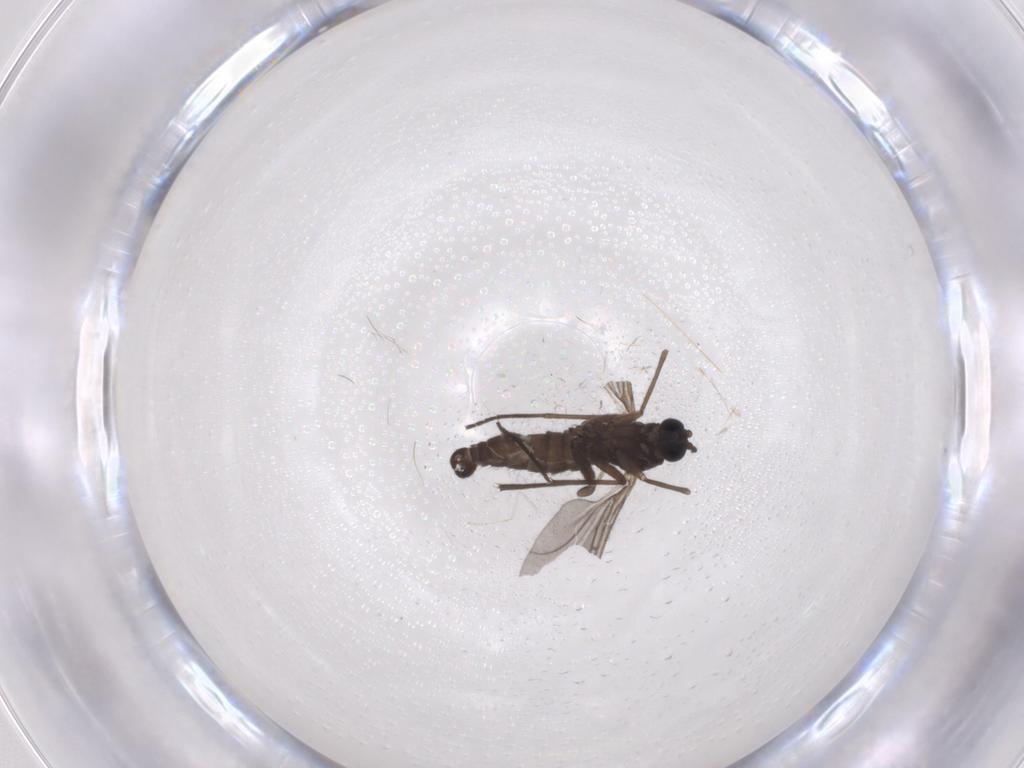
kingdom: Animalia
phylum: Arthropoda
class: Insecta
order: Diptera
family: Sciaridae
